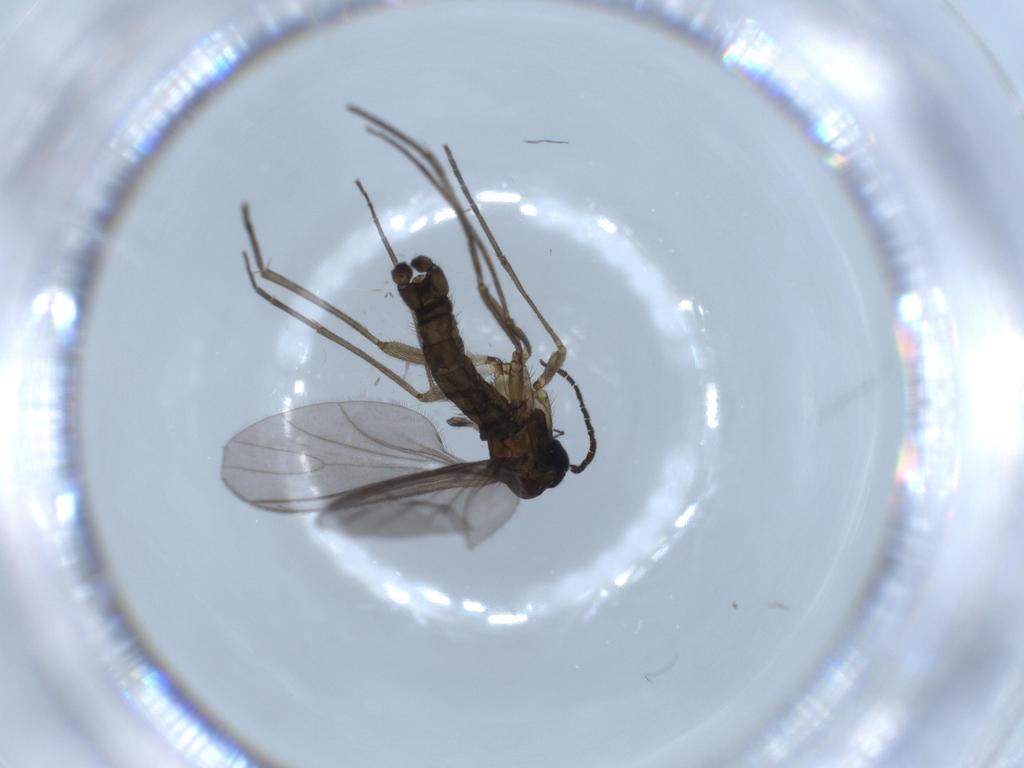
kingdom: Animalia
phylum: Arthropoda
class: Insecta
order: Diptera
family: Sciaridae
